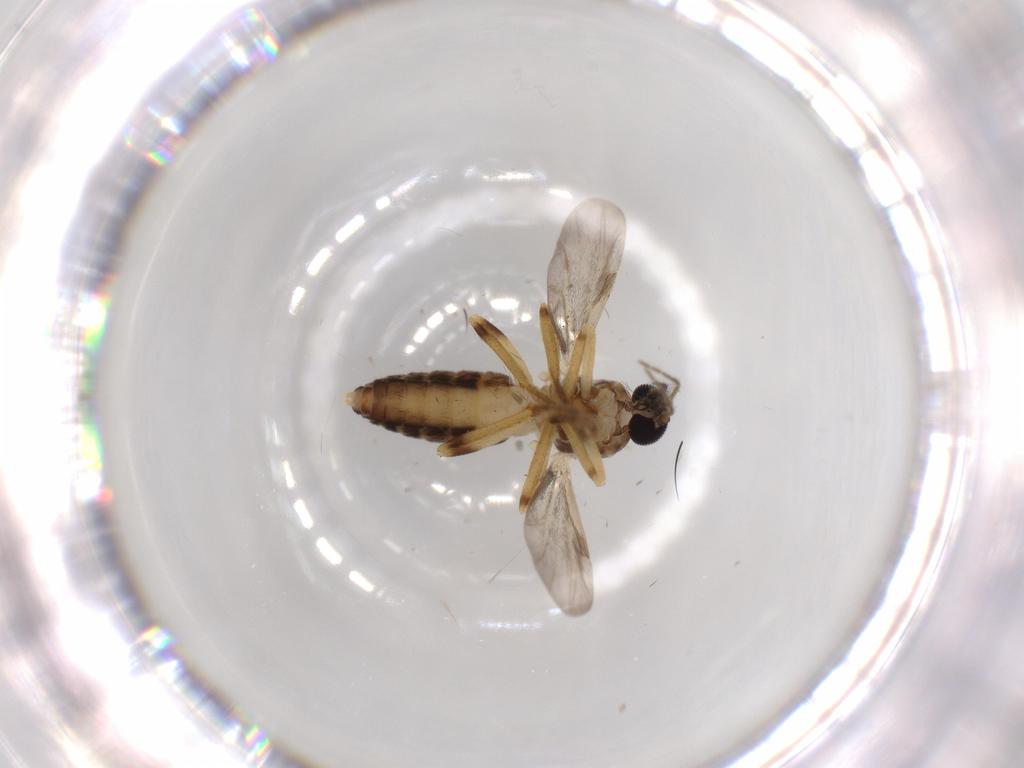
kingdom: Animalia
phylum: Arthropoda
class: Insecta
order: Diptera
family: Ceratopogonidae
